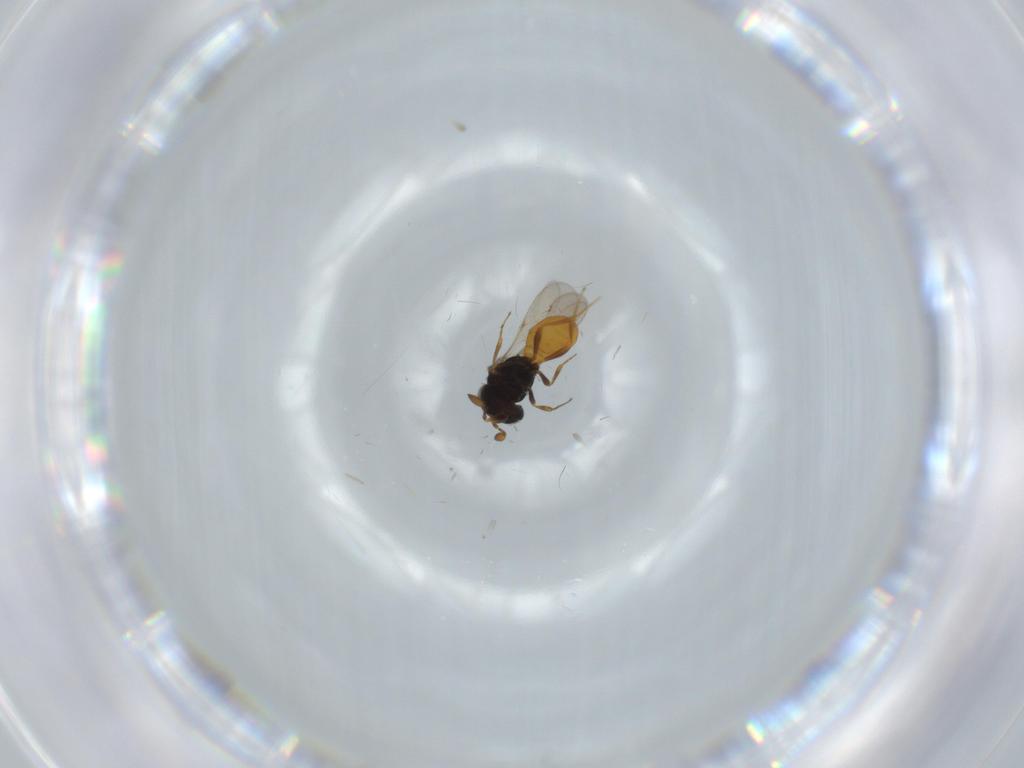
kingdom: Animalia
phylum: Arthropoda
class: Insecta
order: Hymenoptera
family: Scelionidae
